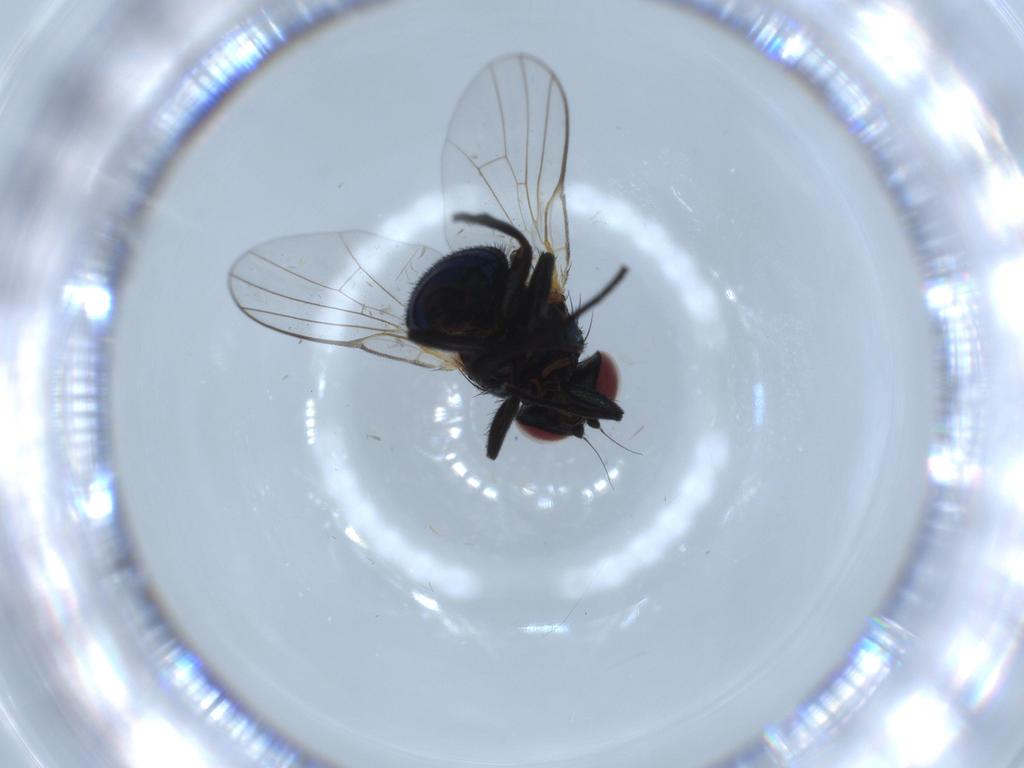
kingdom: Animalia
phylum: Arthropoda
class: Insecta
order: Diptera
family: Agromyzidae
